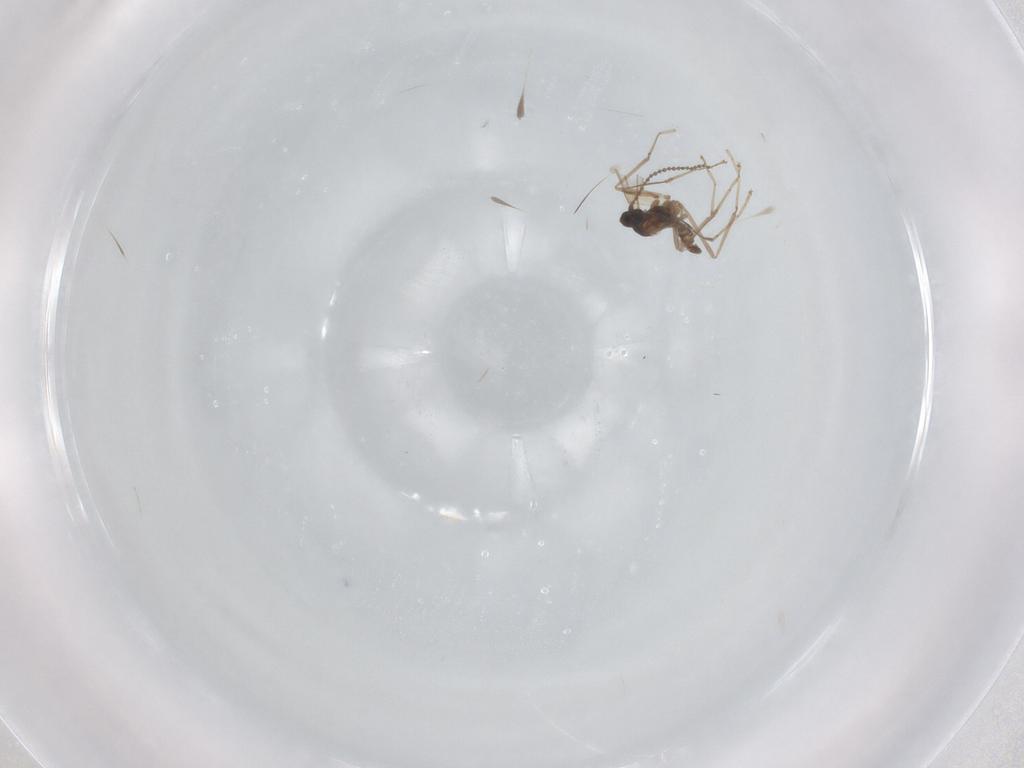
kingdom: Animalia
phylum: Arthropoda
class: Insecta
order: Diptera
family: Cecidomyiidae
